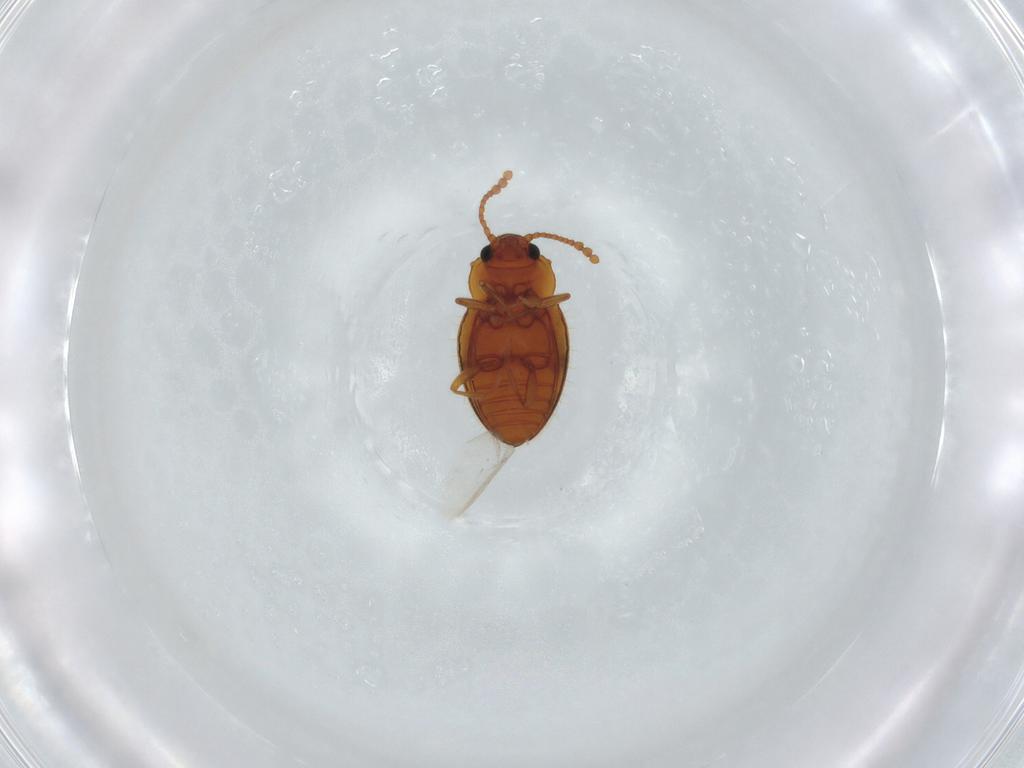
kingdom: Animalia
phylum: Arthropoda
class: Insecta
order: Coleoptera
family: Erotylidae
